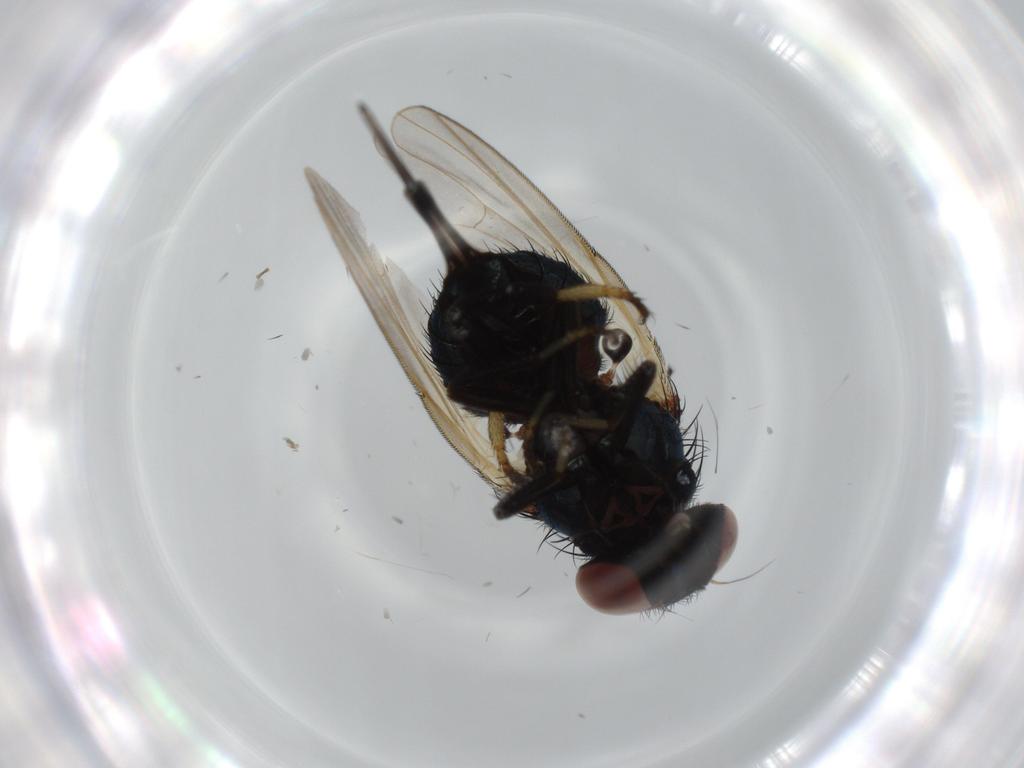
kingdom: Animalia
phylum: Arthropoda
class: Insecta
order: Diptera
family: Lonchaeidae
